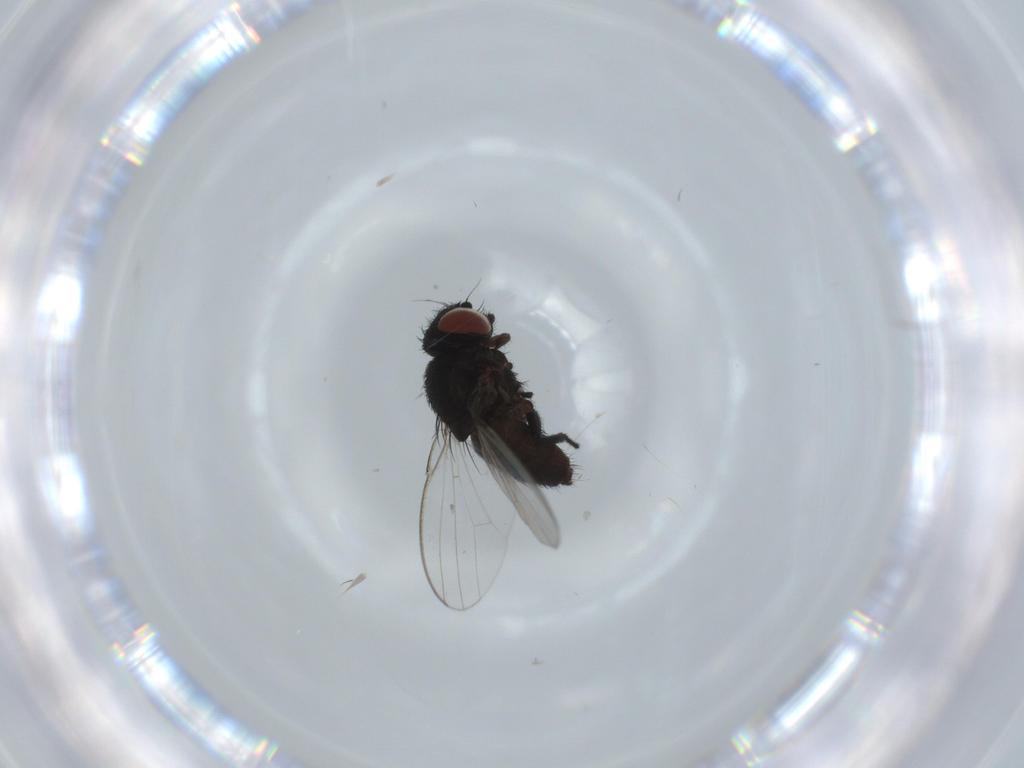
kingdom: Animalia
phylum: Arthropoda
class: Insecta
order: Diptera
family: Milichiidae
